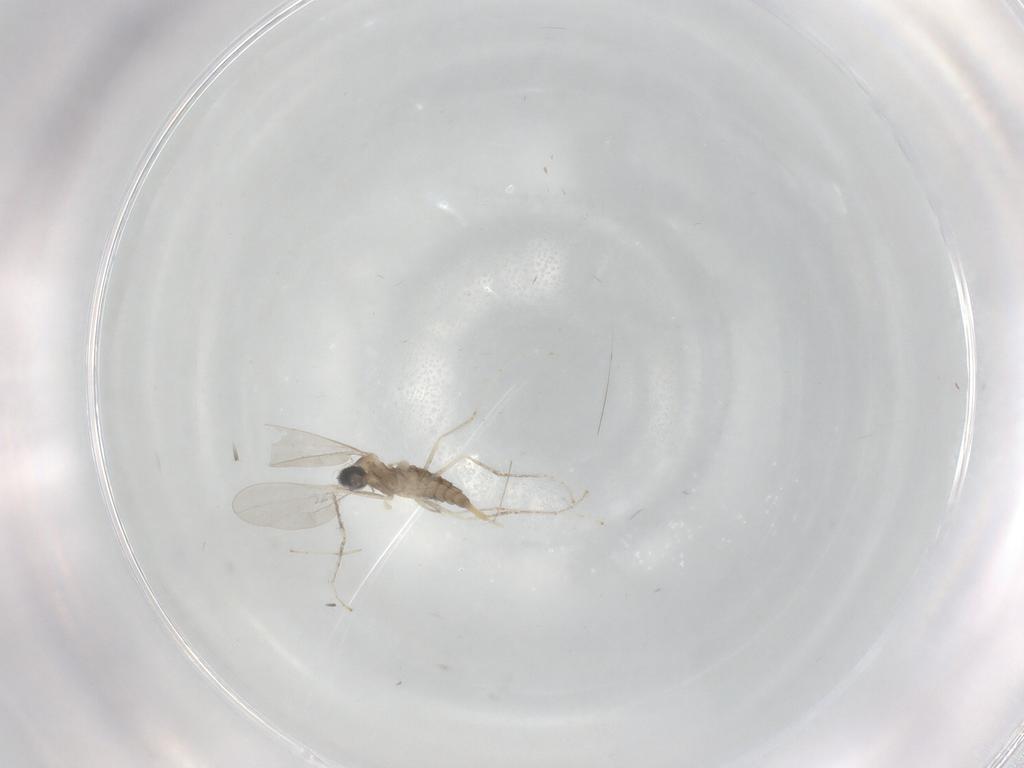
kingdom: Animalia
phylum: Arthropoda
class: Insecta
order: Diptera
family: Cecidomyiidae
